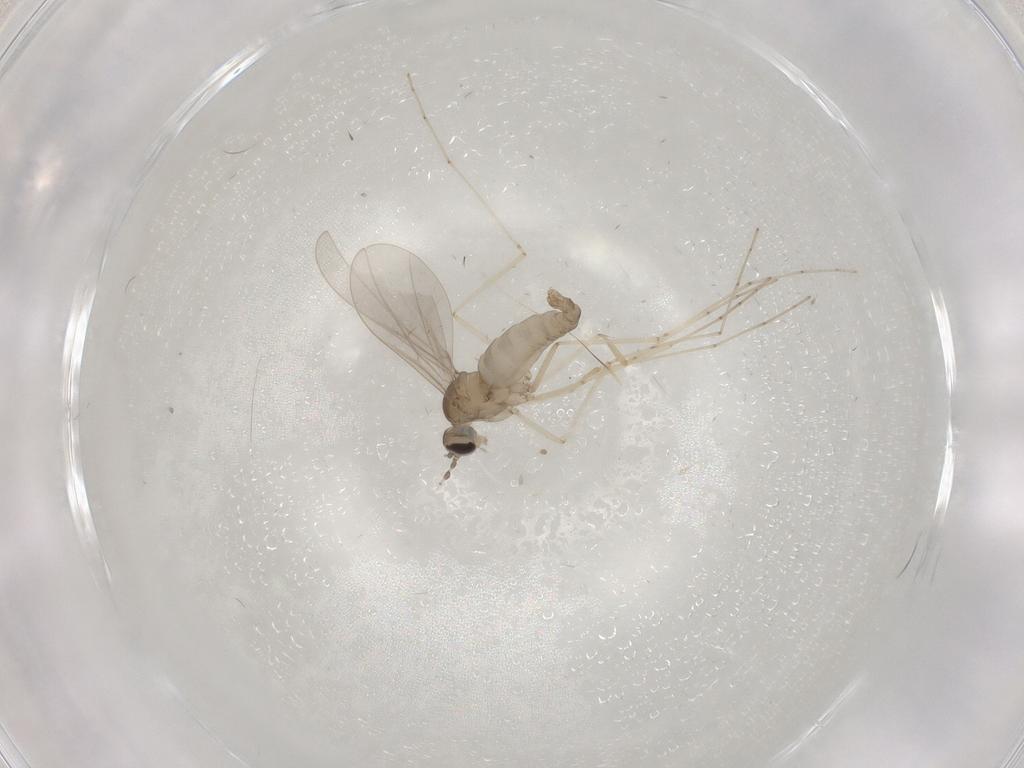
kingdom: Animalia
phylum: Arthropoda
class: Insecta
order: Diptera
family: Cecidomyiidae
